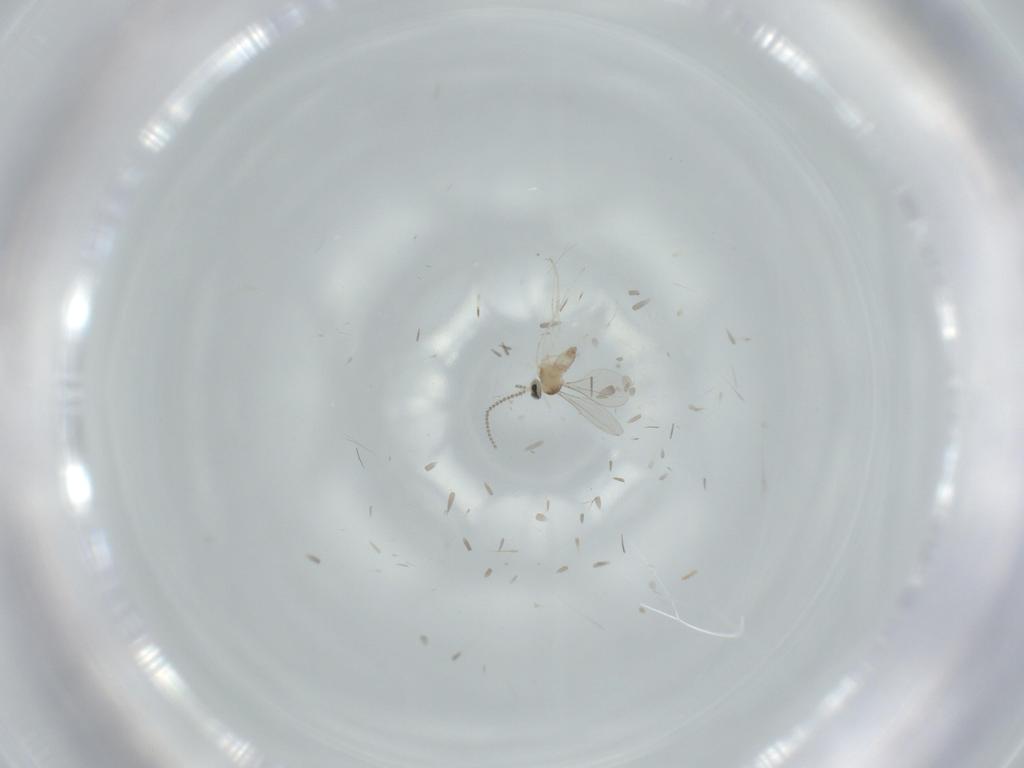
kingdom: Animalia
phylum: Arthropoda
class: Insecta
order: Diptera
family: Cecidomyiidae
